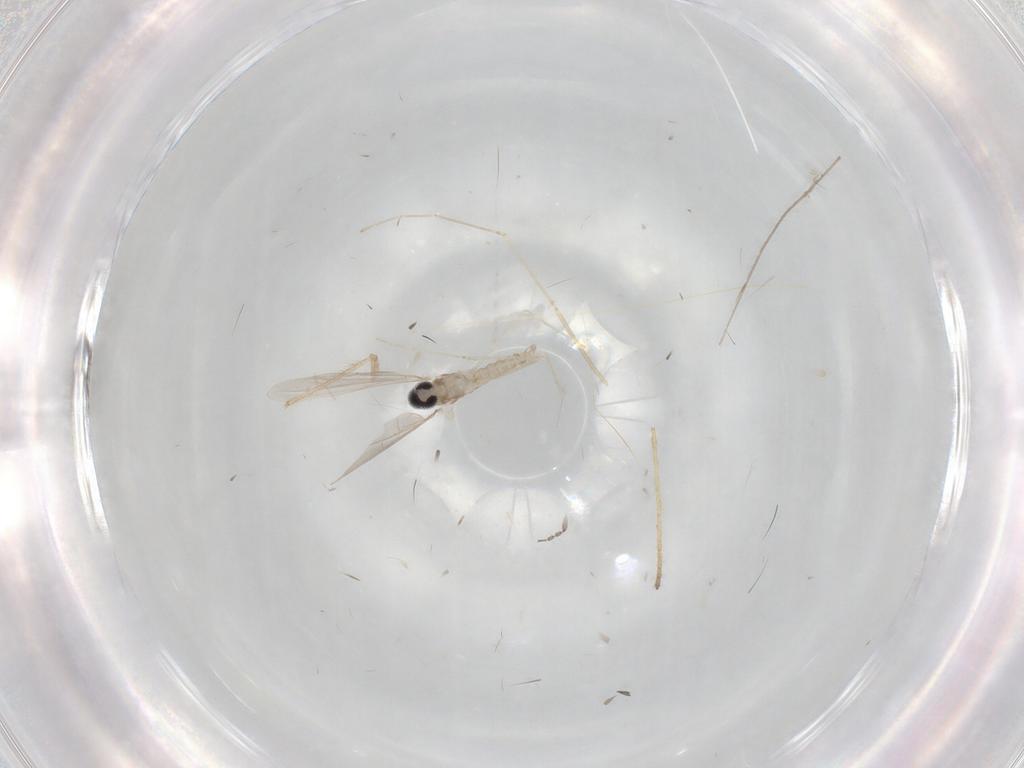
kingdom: Animalia
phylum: Arthropoda
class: Insecta
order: Diptera
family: Cecidomyiidae
